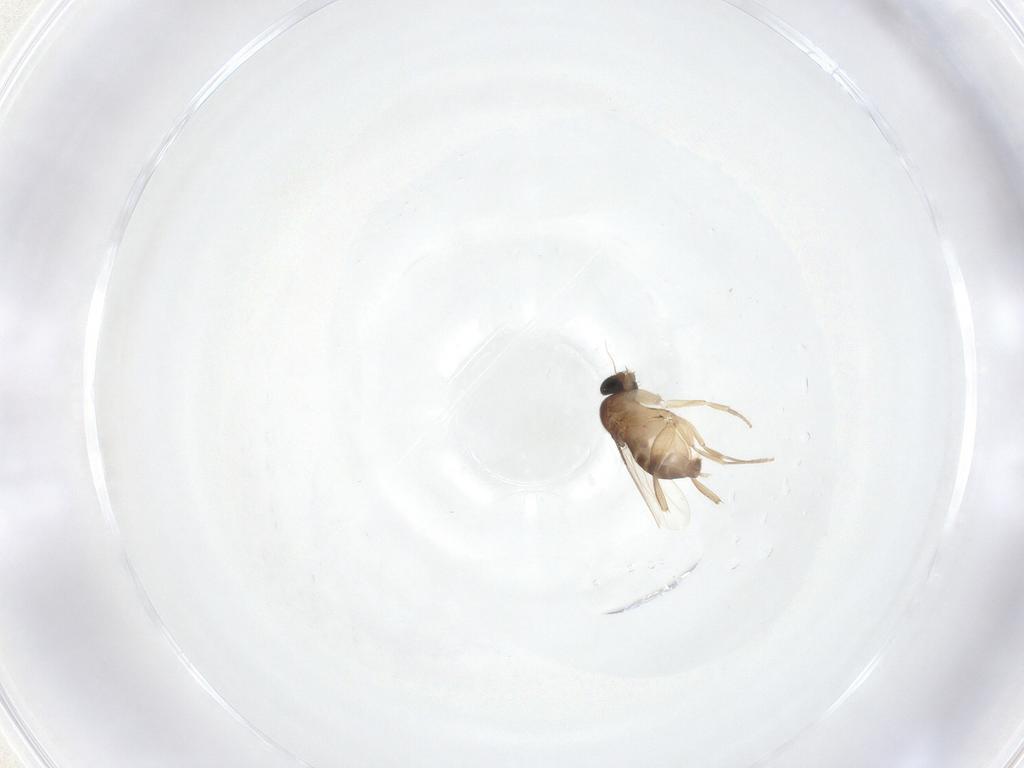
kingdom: Animalia
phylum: Arthropoda
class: Insecta
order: Diptera
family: Phoridae
